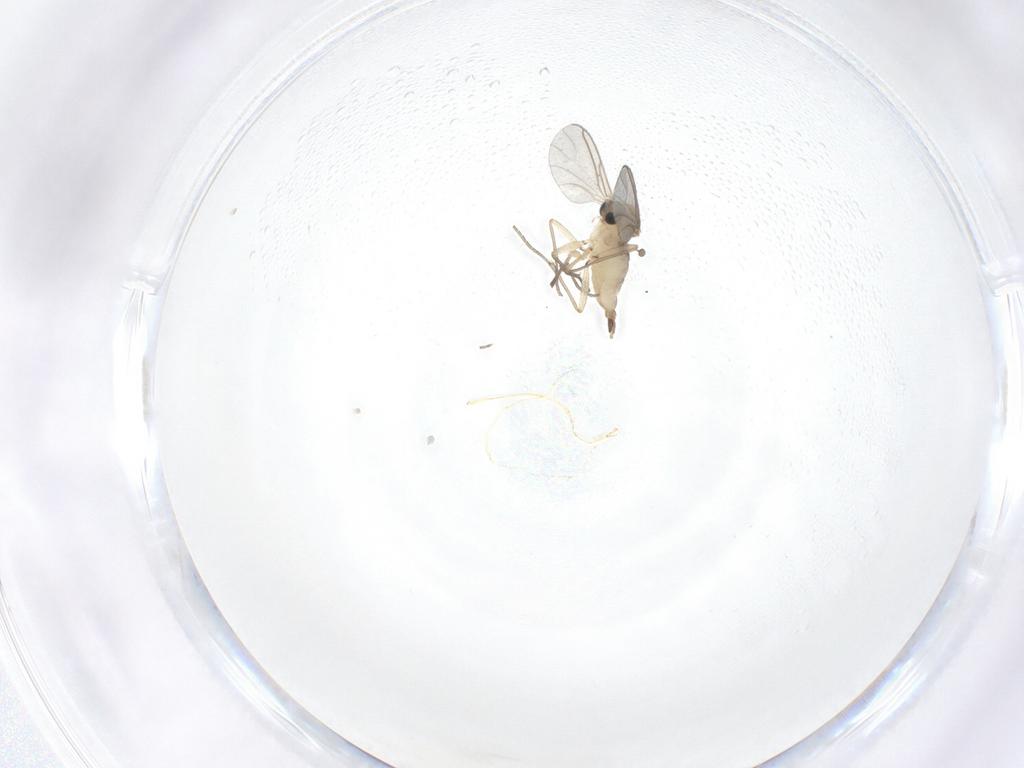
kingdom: Animalia
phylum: Arthropoda
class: Insecta
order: Diptera
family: Sciaridae
